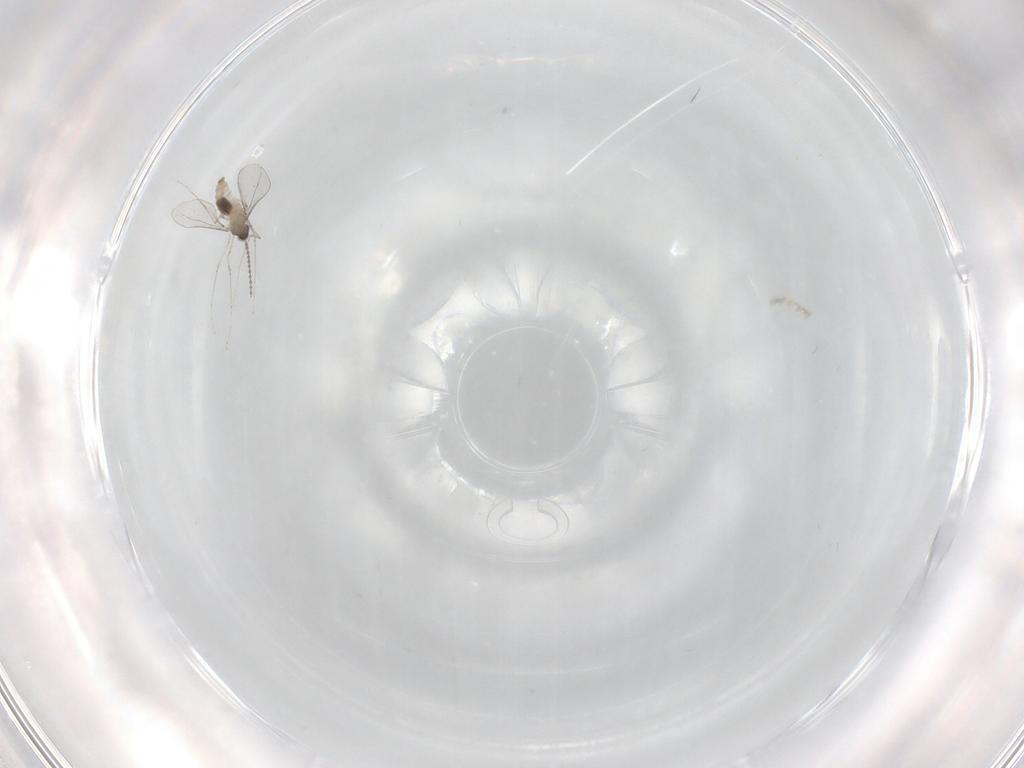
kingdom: Animalia
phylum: Arthropoda
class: Insecta
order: Diptera
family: Cecidomyiidae
